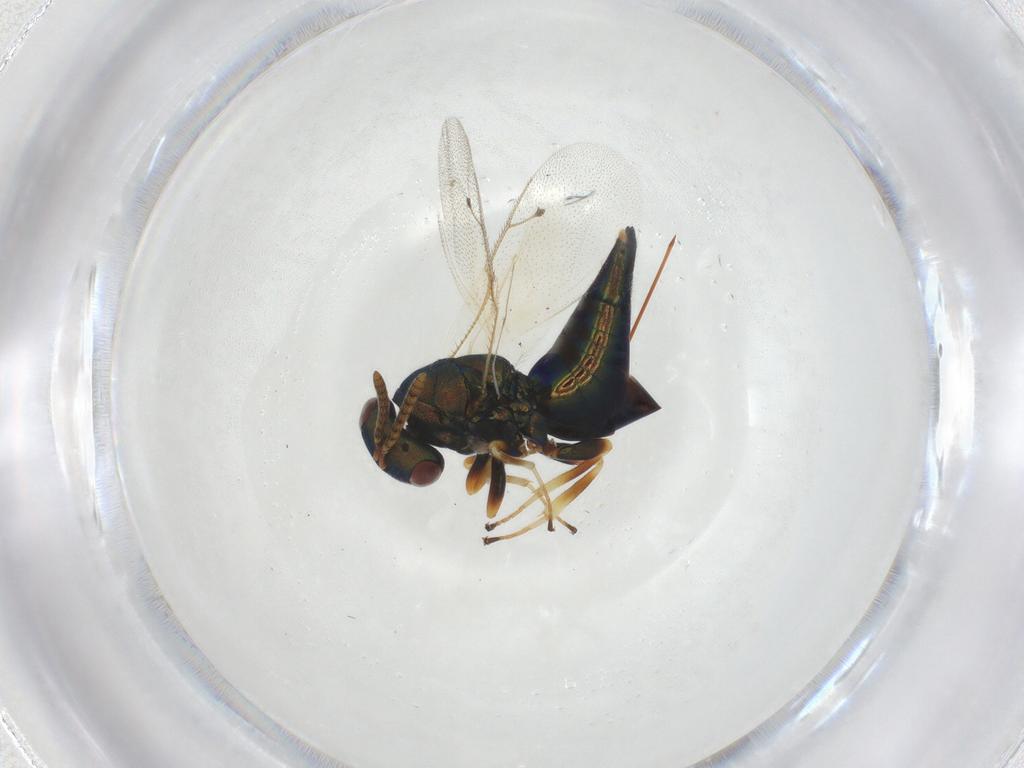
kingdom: Animalia
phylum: Arthropoda
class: Insecta
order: Hymenoptera
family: Pteromalidae
